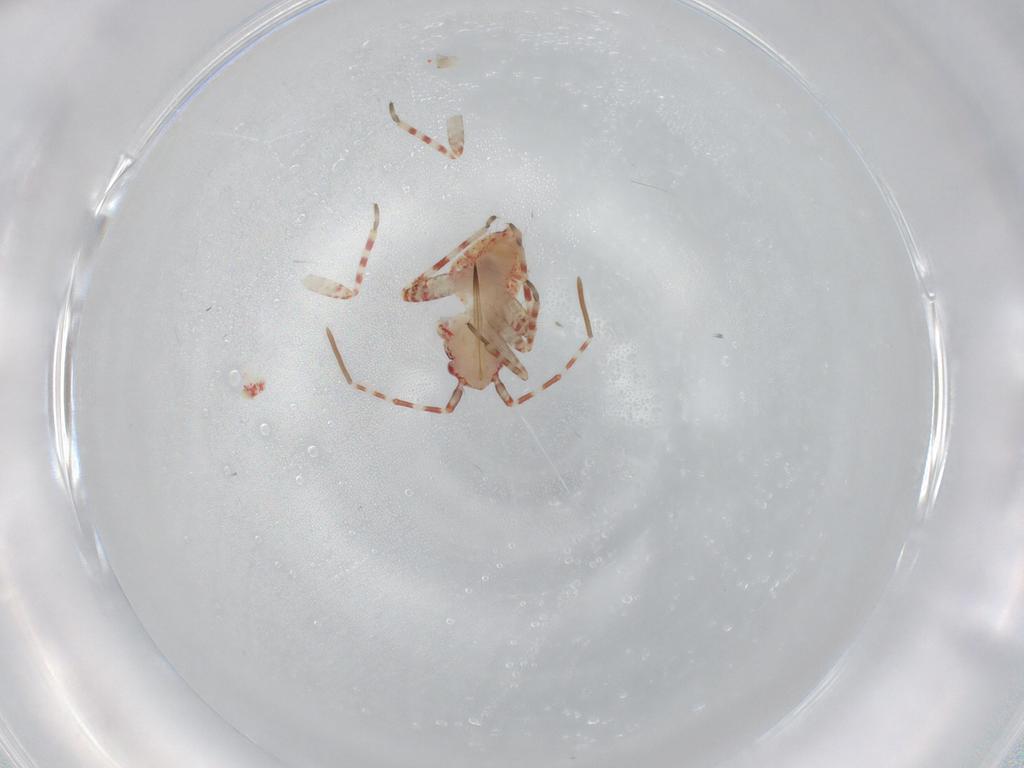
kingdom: Animalia
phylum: Arthropoda
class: Insecta
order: Hemiptera
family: Miridae
